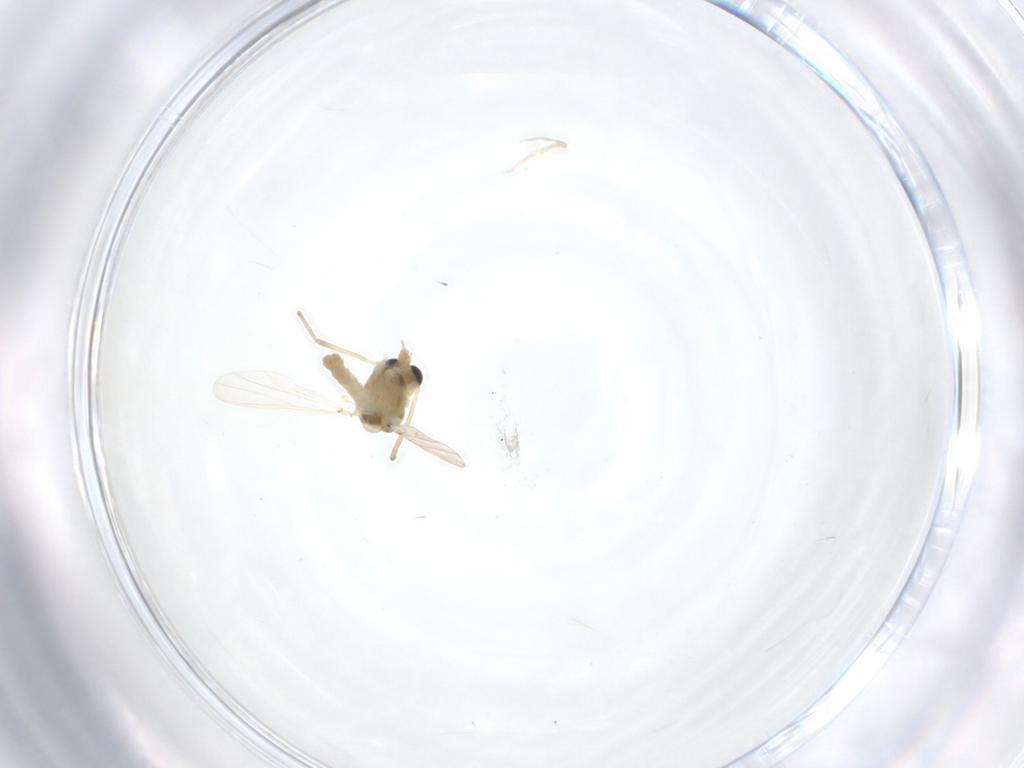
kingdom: Animalia
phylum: Arthropoda
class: Insecta
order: Diptera
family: Chironomidae
